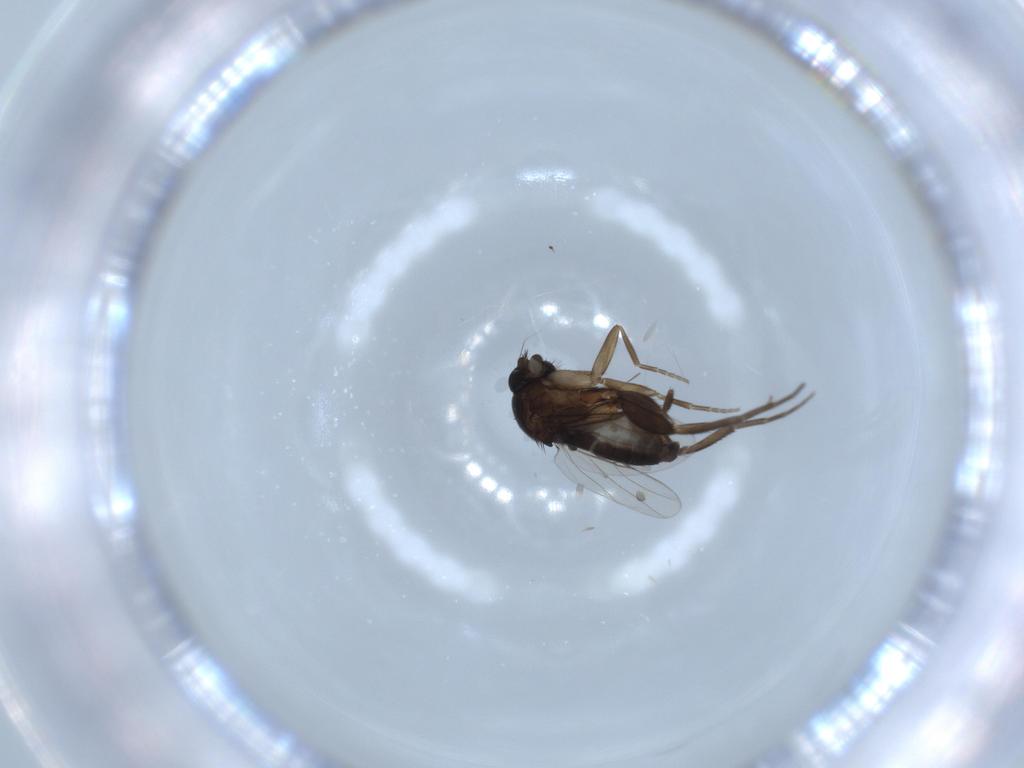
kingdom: Animalia
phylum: Arthropoda
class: Insecta
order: Diptera
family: Phoridae
